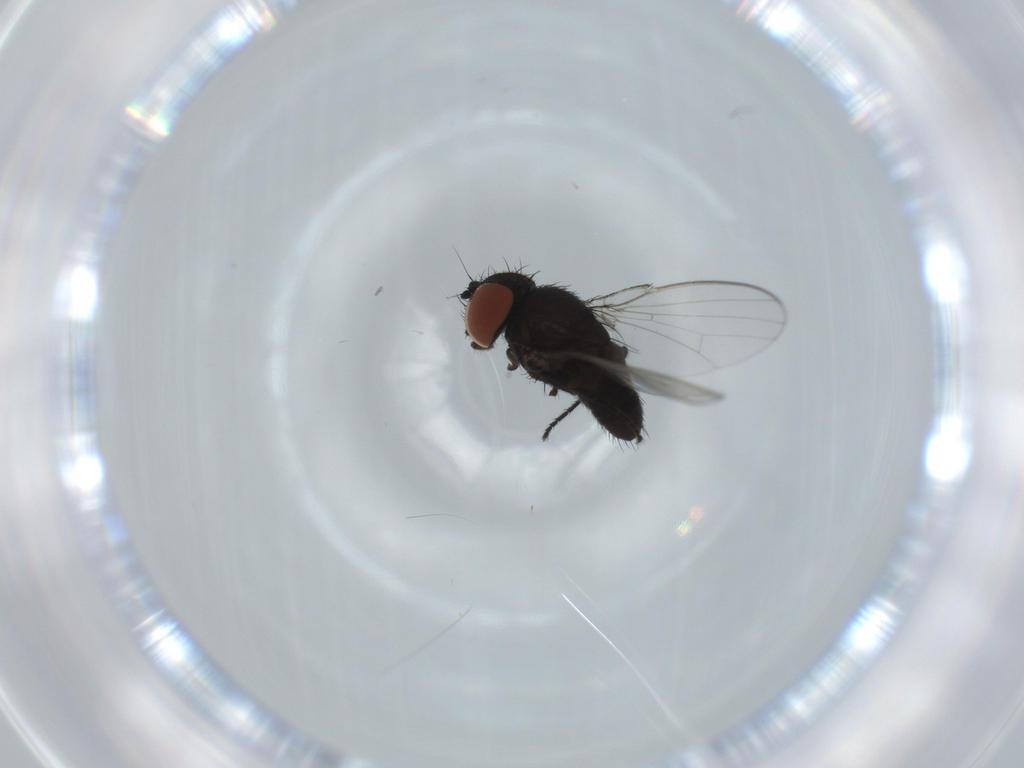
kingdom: Animalia
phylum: Arthropoda
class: Insecta
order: Diptera
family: Milichiidae
